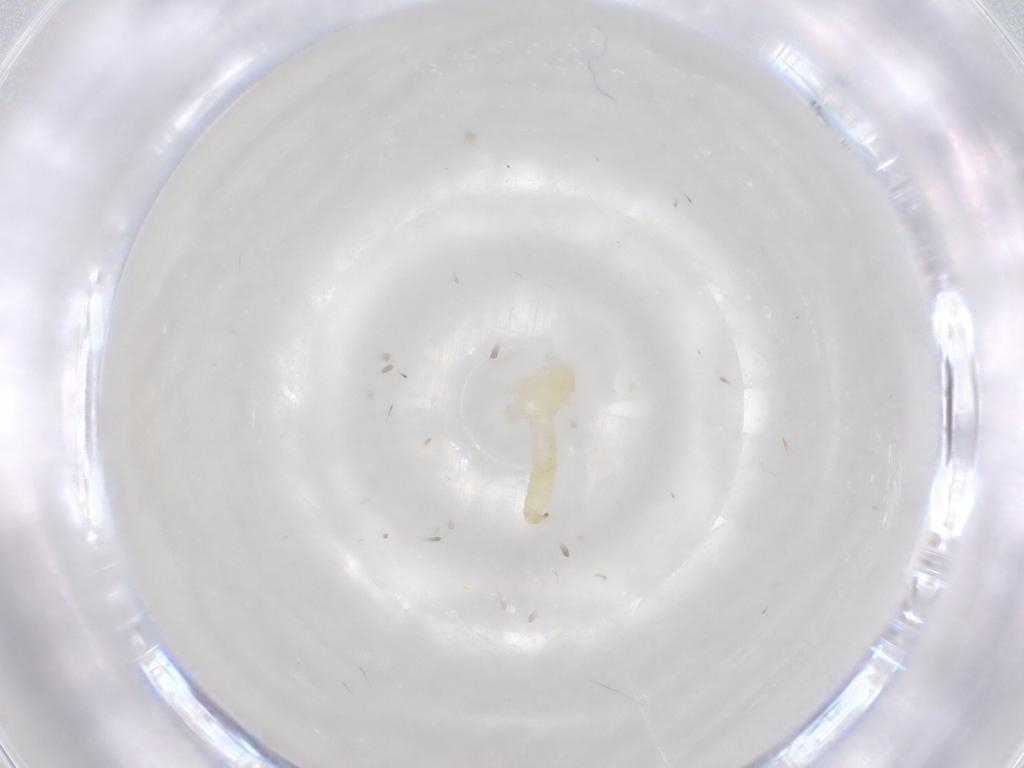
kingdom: Animalia
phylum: Arthropoda
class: Insecta
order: Diptera
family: Cecidomyiidae
